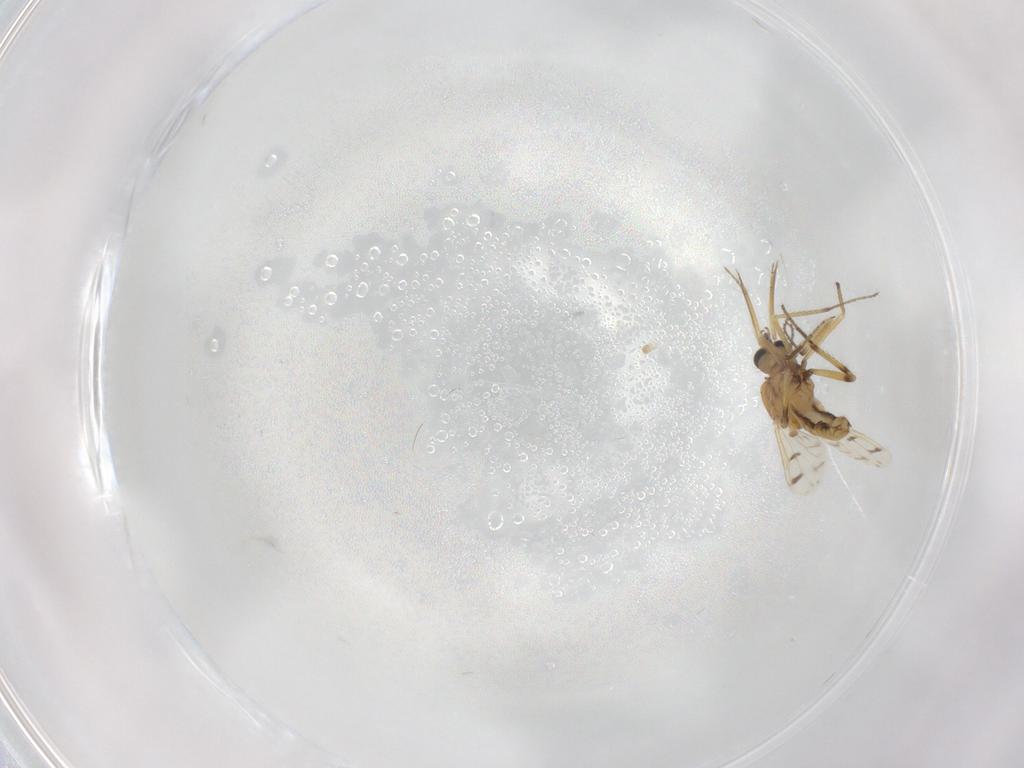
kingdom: Animalia
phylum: Arthropoda
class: Insecta
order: Diptera
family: Ceratopogonidae
